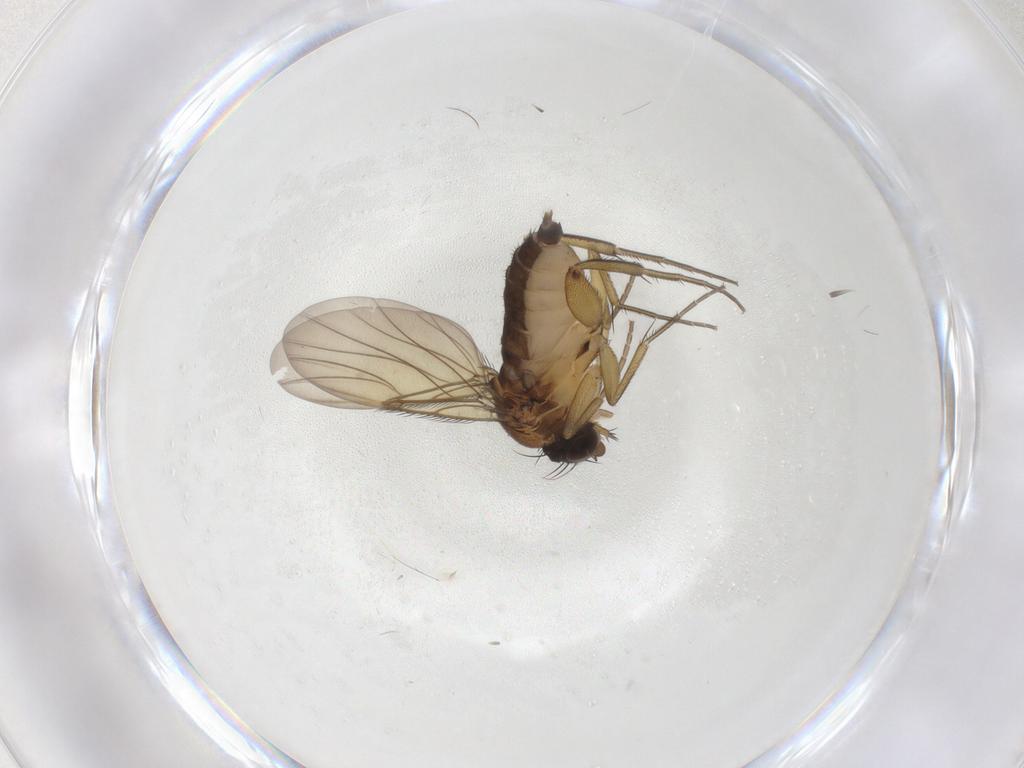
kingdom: Animalia
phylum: Arthropoda
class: Insecta
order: Diptera
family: Phoridae
